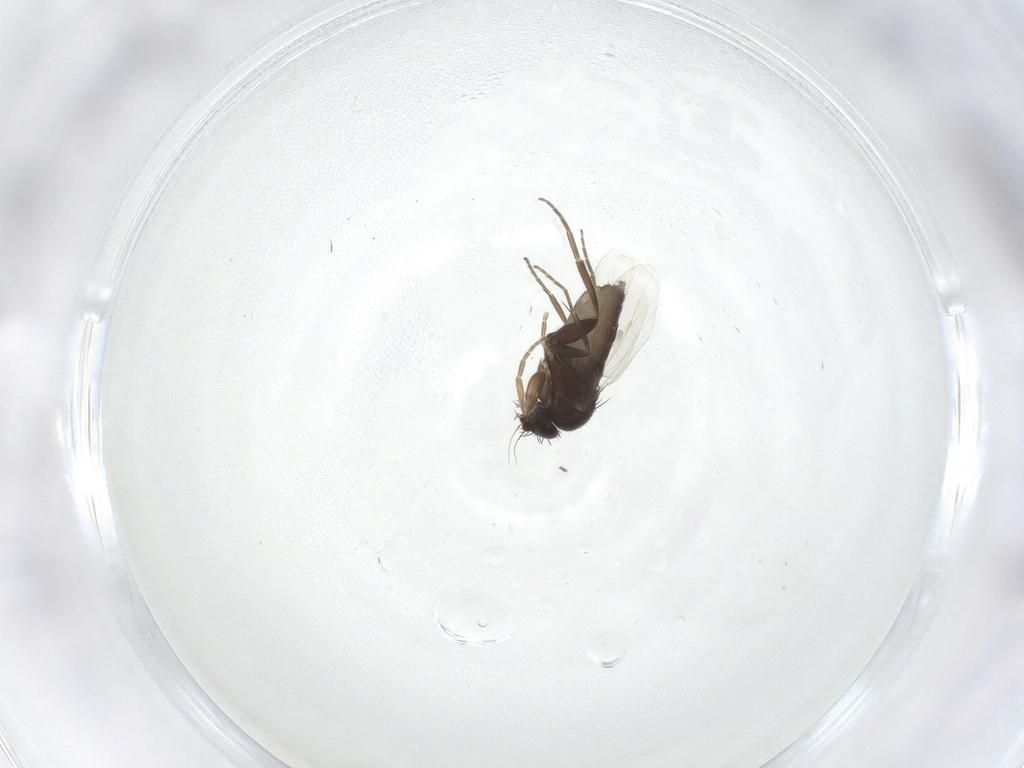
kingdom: Animalia
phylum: Arthropoda
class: Insecta
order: Diptera
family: Phoridae
